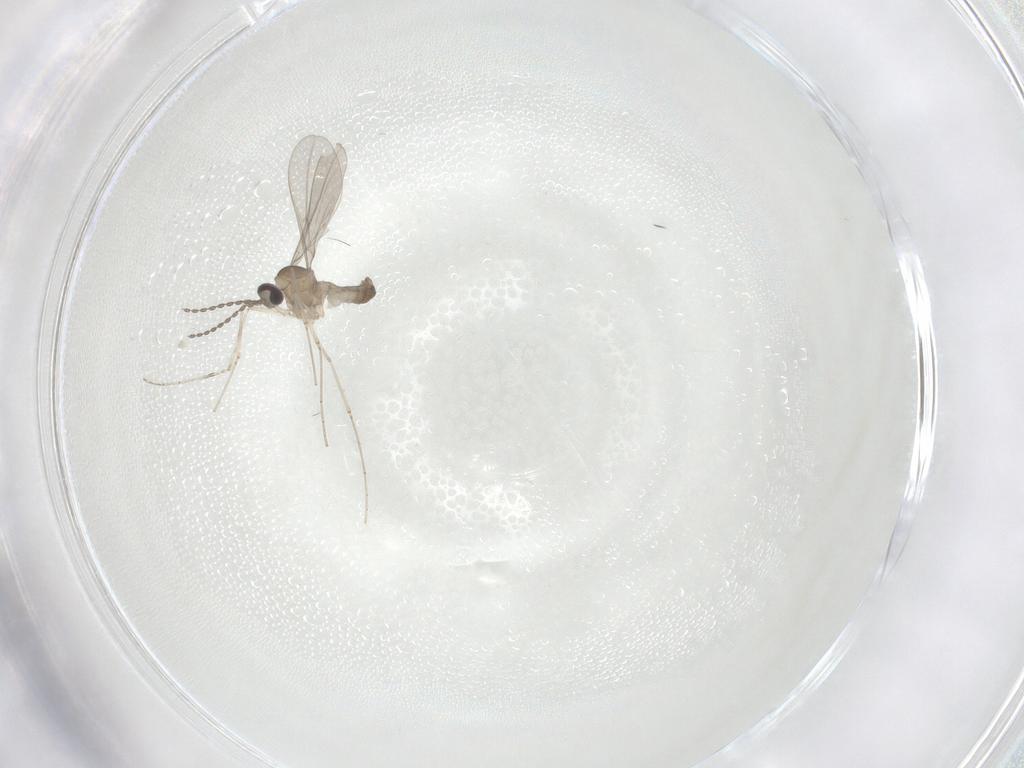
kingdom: Animalia
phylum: Arthropoda
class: Insecta
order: Diptera
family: Cecidomyiidae
